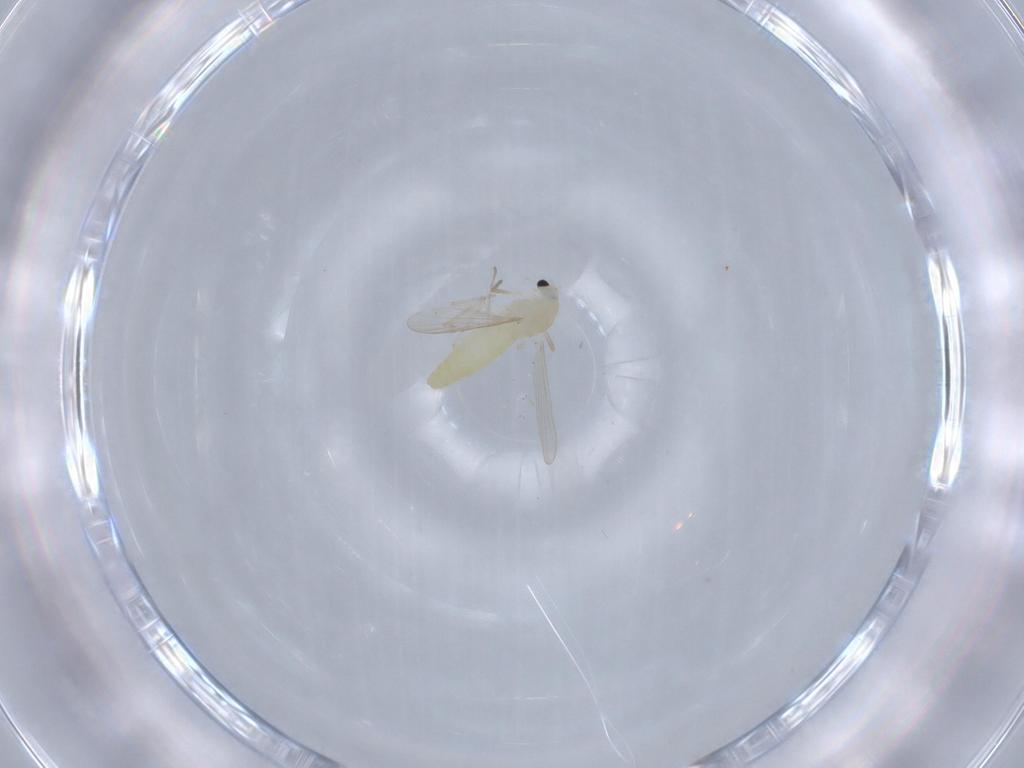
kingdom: Animalia
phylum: Arthropoda
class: Insecta
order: Diptera
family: Chironomidae
